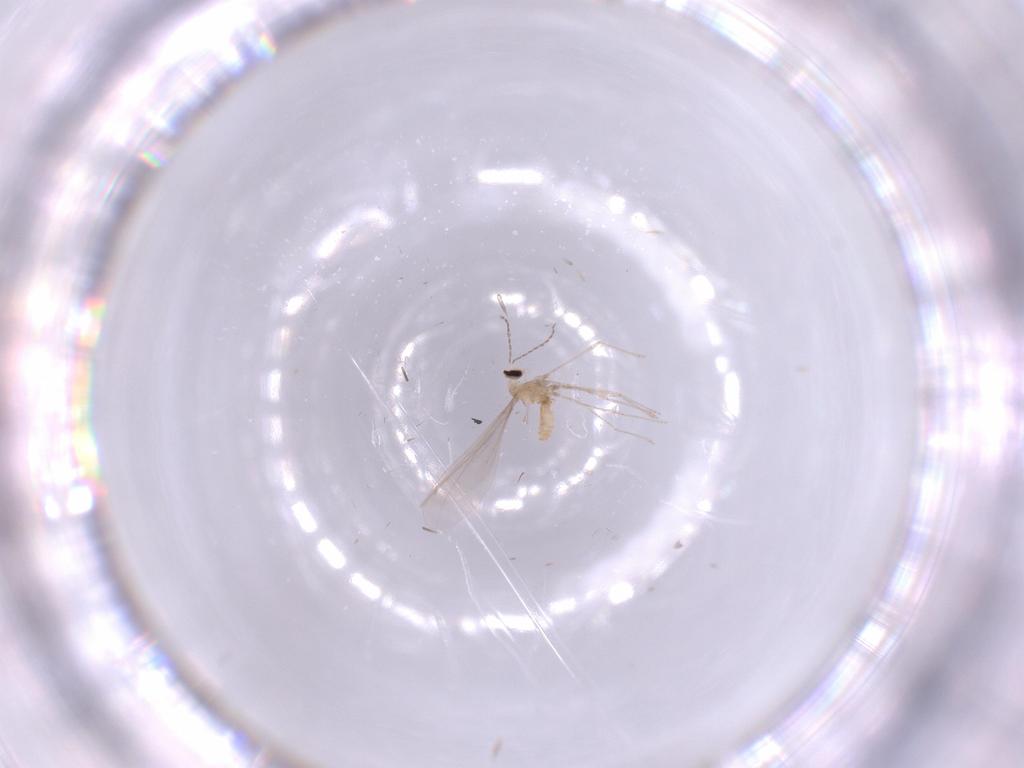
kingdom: Animalia
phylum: Arthropoda
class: Insecta
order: Diptera
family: Cecidomyiidae
